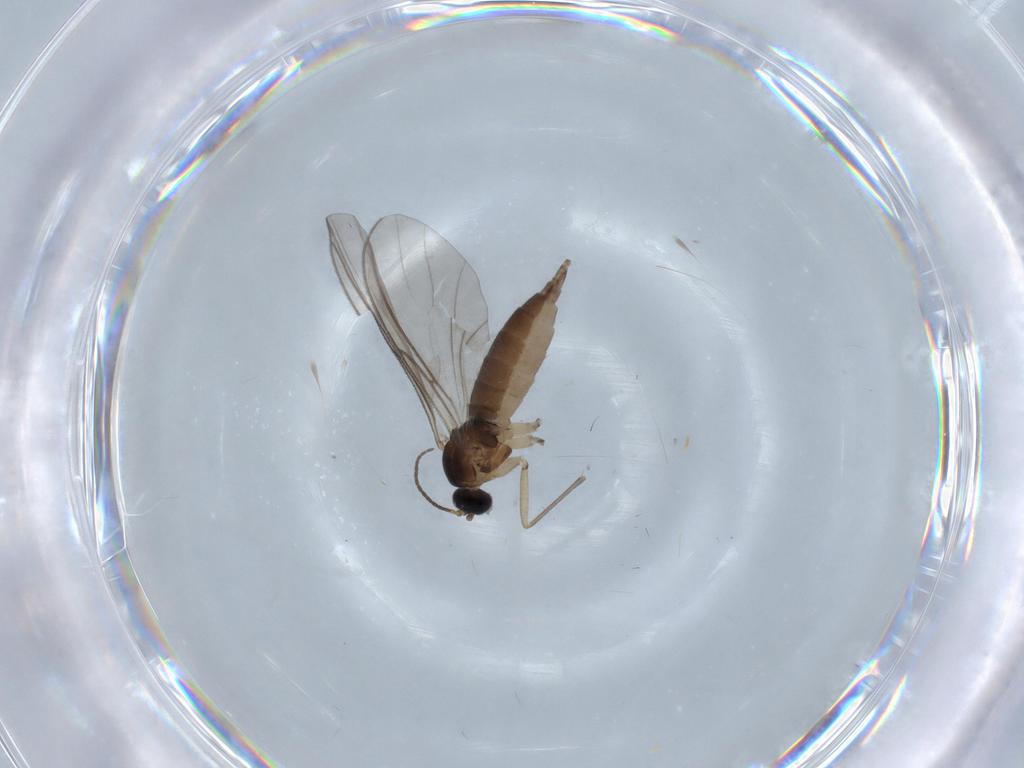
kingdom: Animalia
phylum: Arthropoda
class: Insecta
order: Diptera
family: Sciaridae
